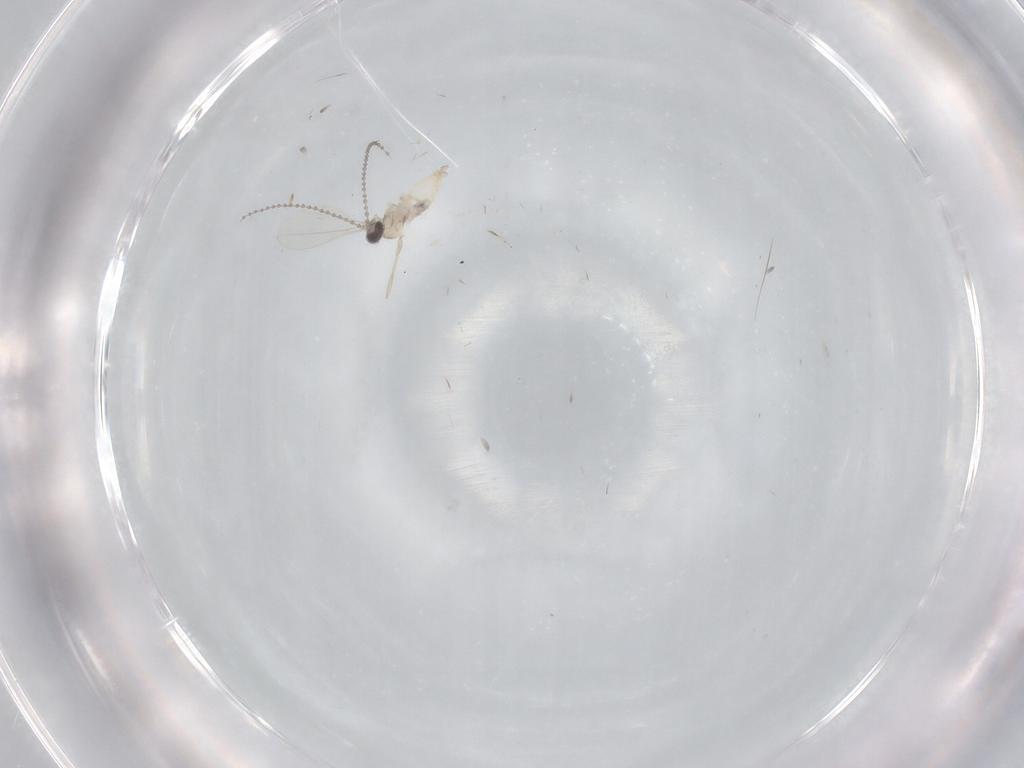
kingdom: Animalia
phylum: Arthropoda
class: Insecta
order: Diptera
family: Cecidomyiidae
